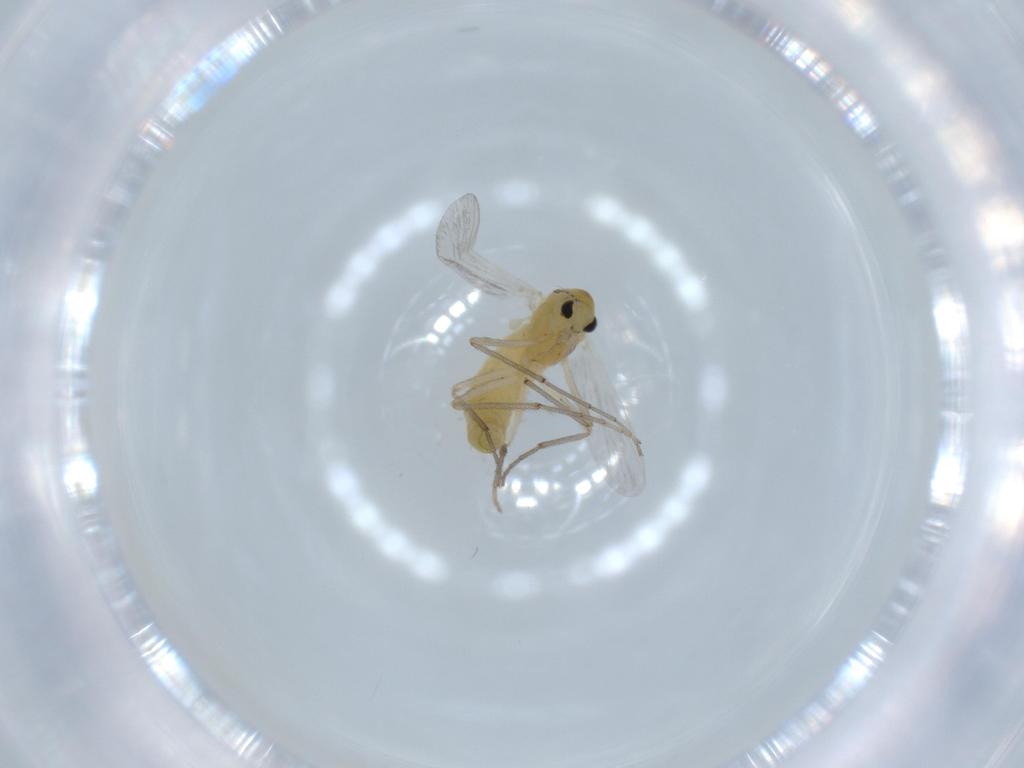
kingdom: Animalia
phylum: Arthropoda
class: Insecta
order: Diptera
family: Chironomidae
